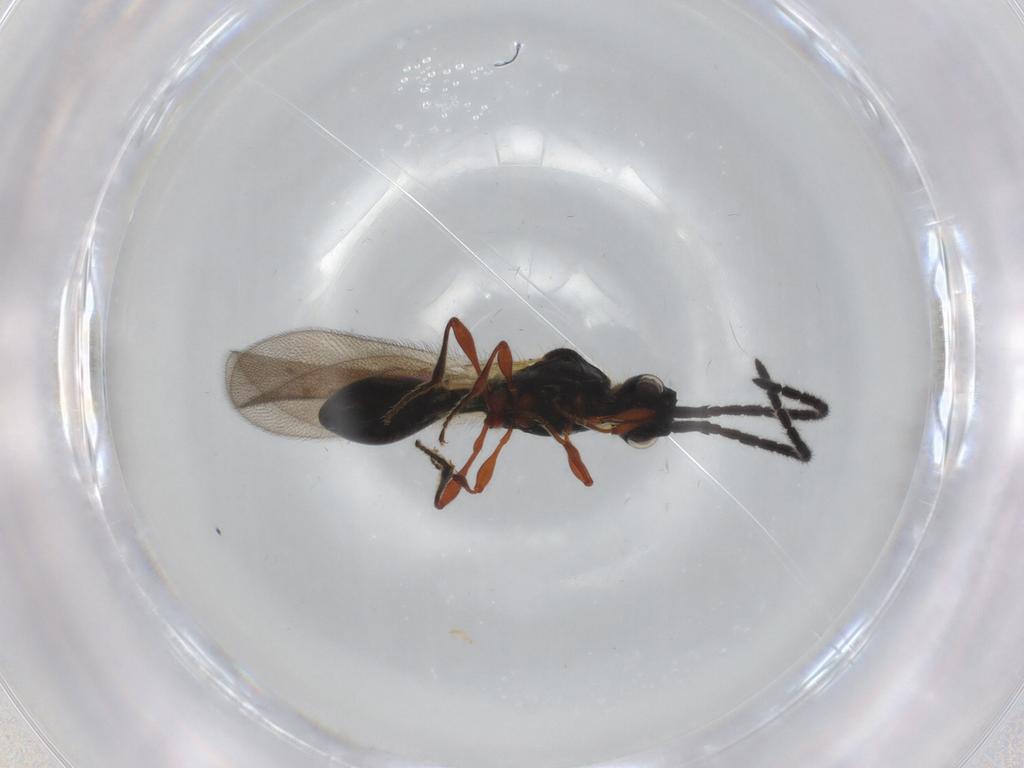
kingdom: Animalia
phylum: Arthropoda
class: Insecta
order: Hymenoptera
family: Diapriidae
